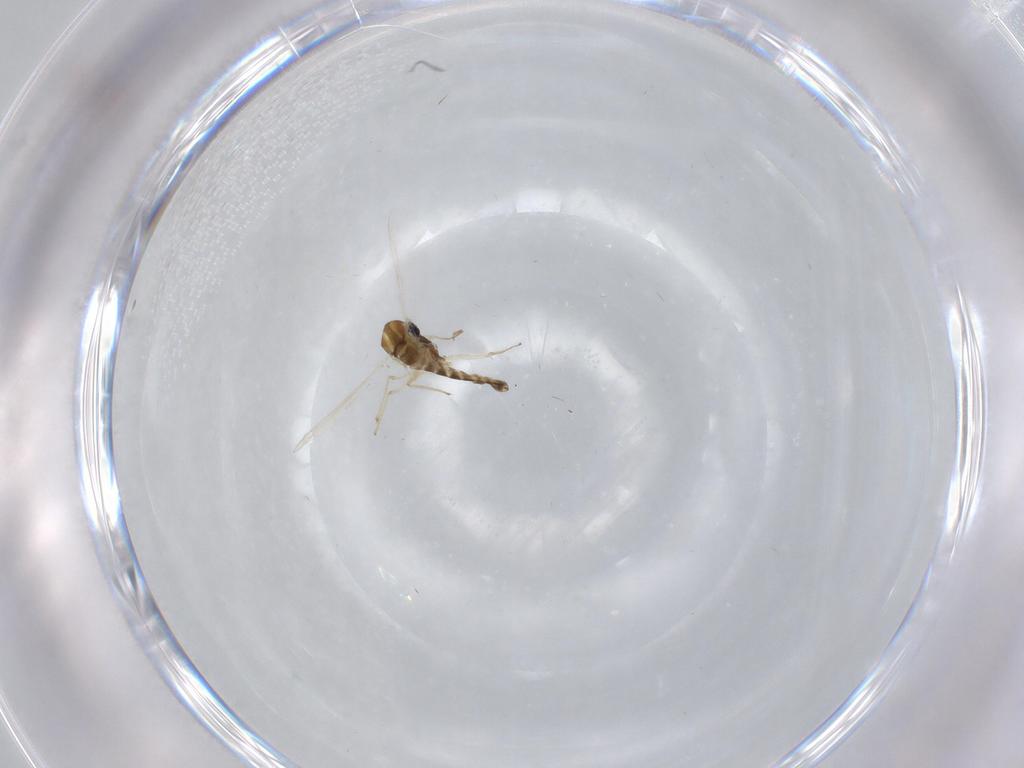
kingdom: Animalia
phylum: Arthropoda
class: Insecta
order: Diptera
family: Chironomidae
